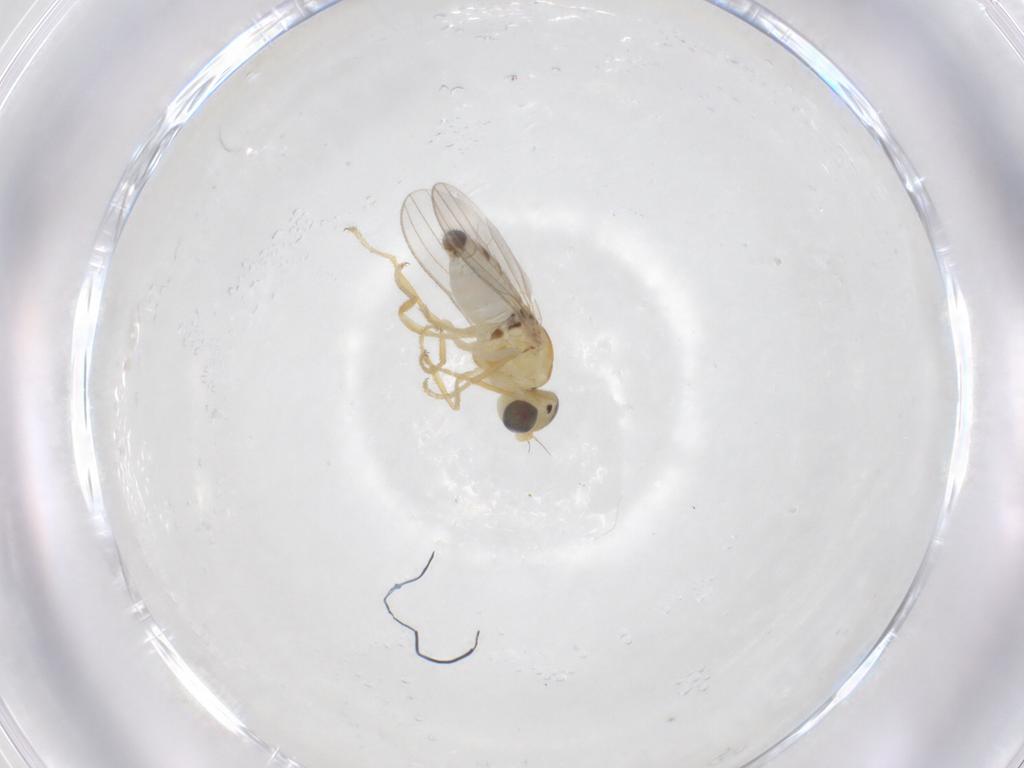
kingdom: Animalia
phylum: Arthropoda
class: Insecta
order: Diptera
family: Chyromyidae
